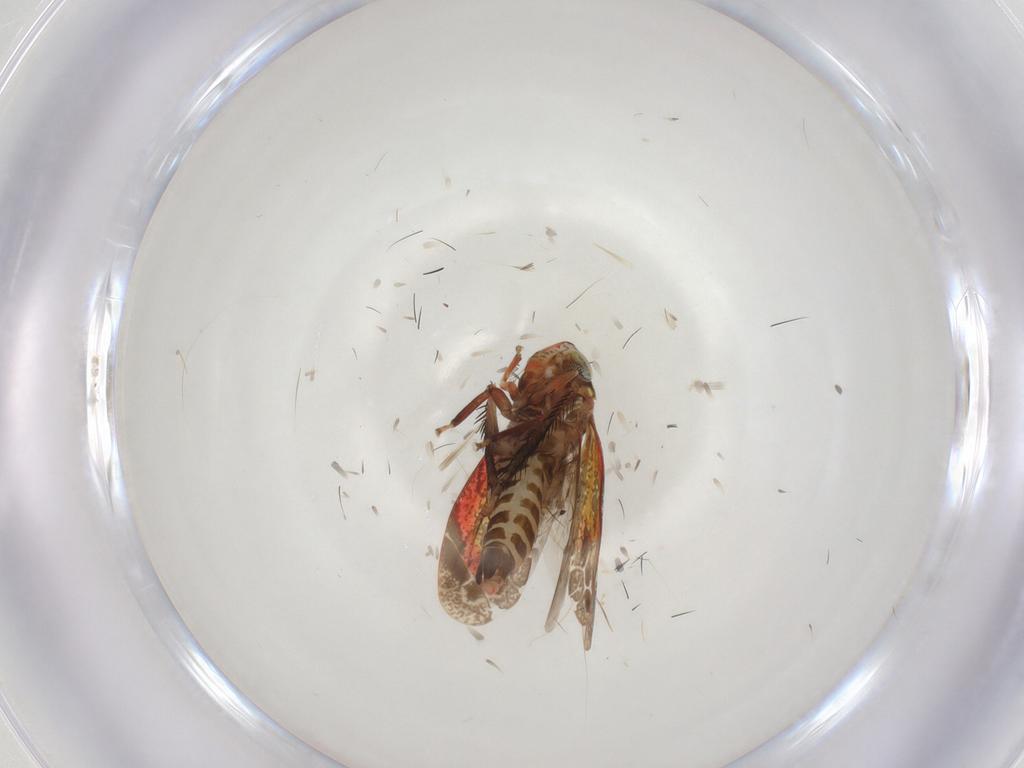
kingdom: Animalia
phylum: Arthropoda
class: Insecta
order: Hemiptera
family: Cicadellidae
